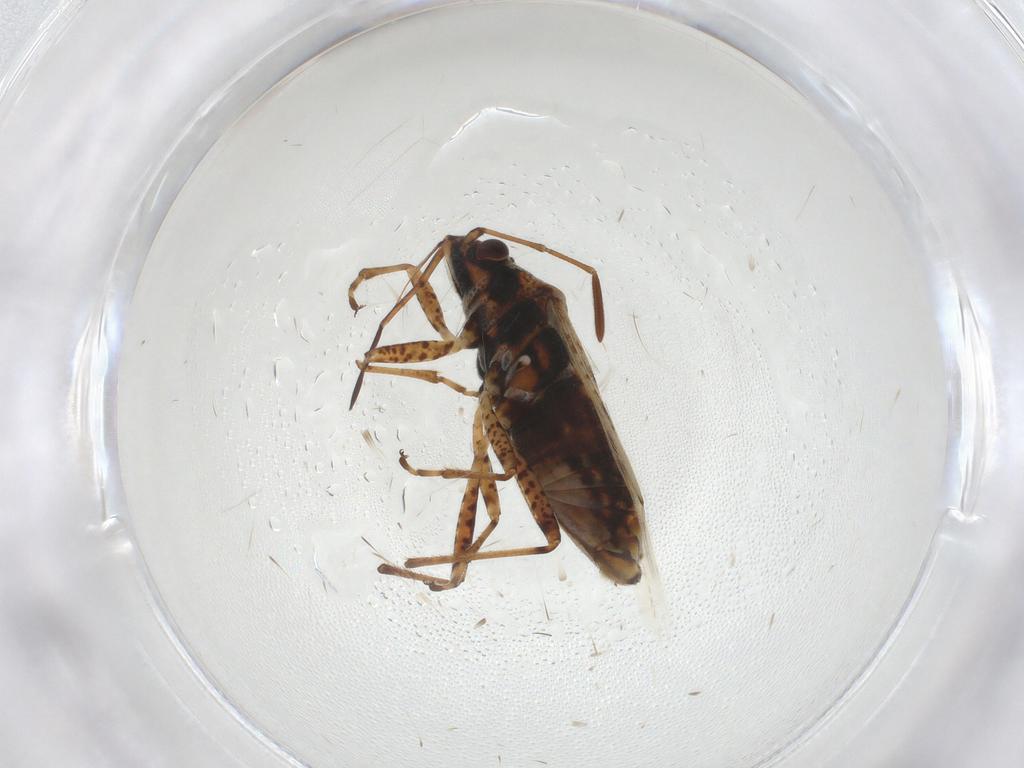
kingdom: Animalia
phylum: Arthropoda
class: Insecta
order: Hemiptera
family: Lygaeidae
